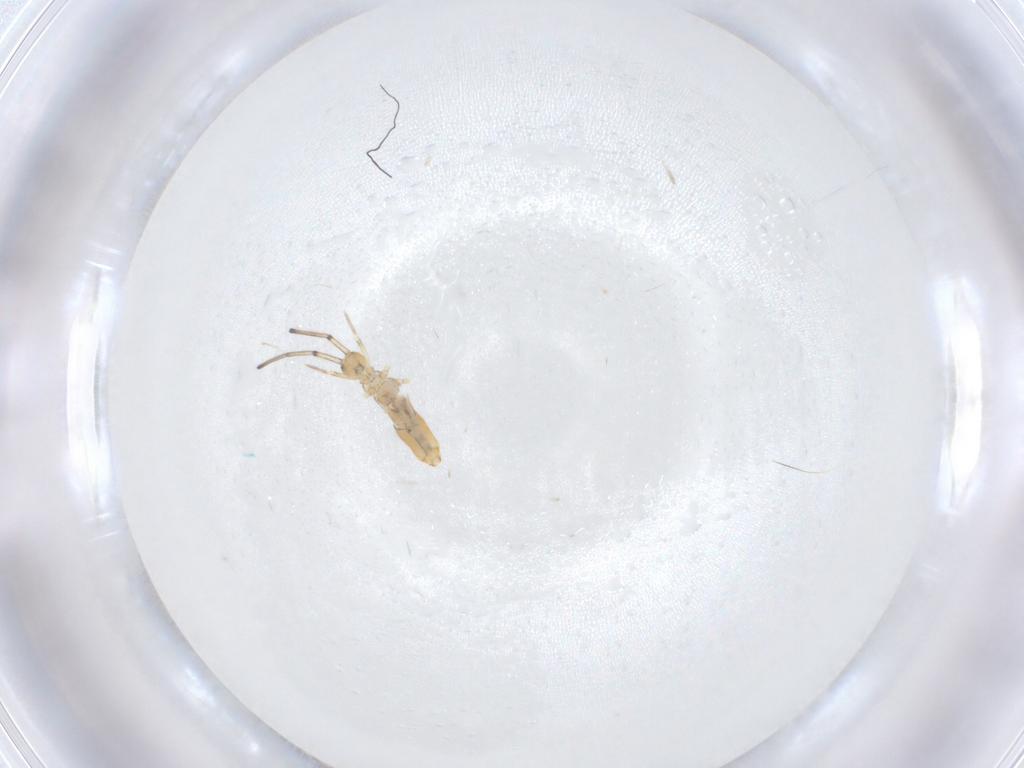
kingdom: Animalia
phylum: Arthropoda
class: Collembola
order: Entomobryomorpha
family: Paronellidae
